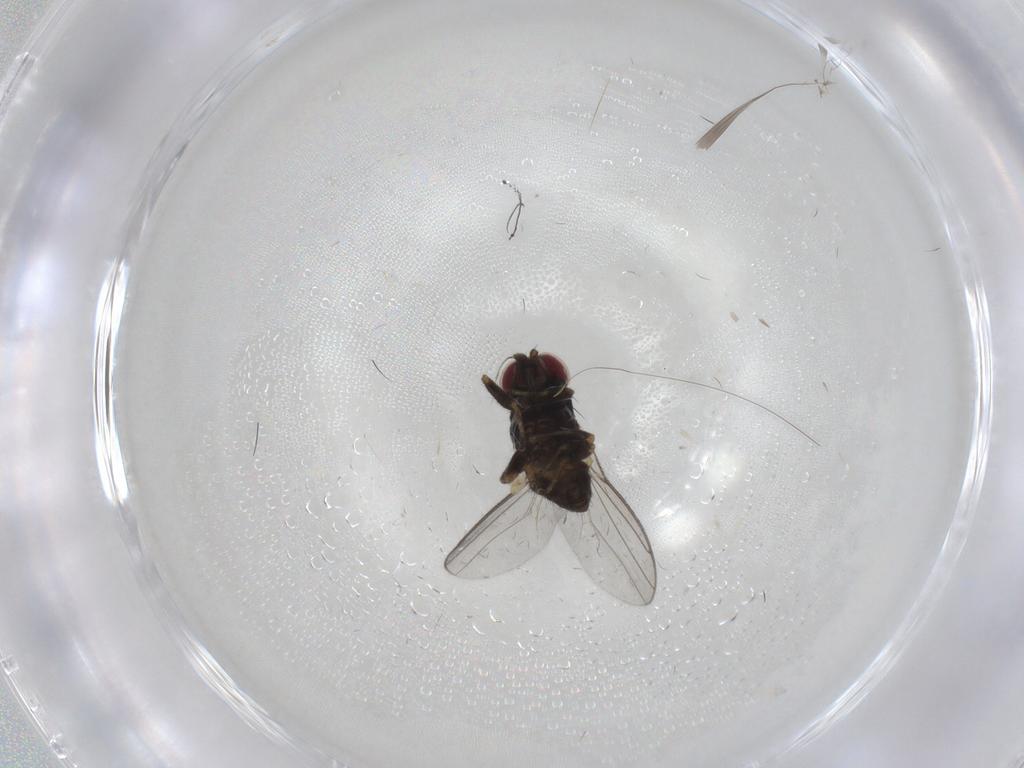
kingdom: Animalia
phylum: Arthropoda
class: Insecta
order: Diptera
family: Chloropidae
